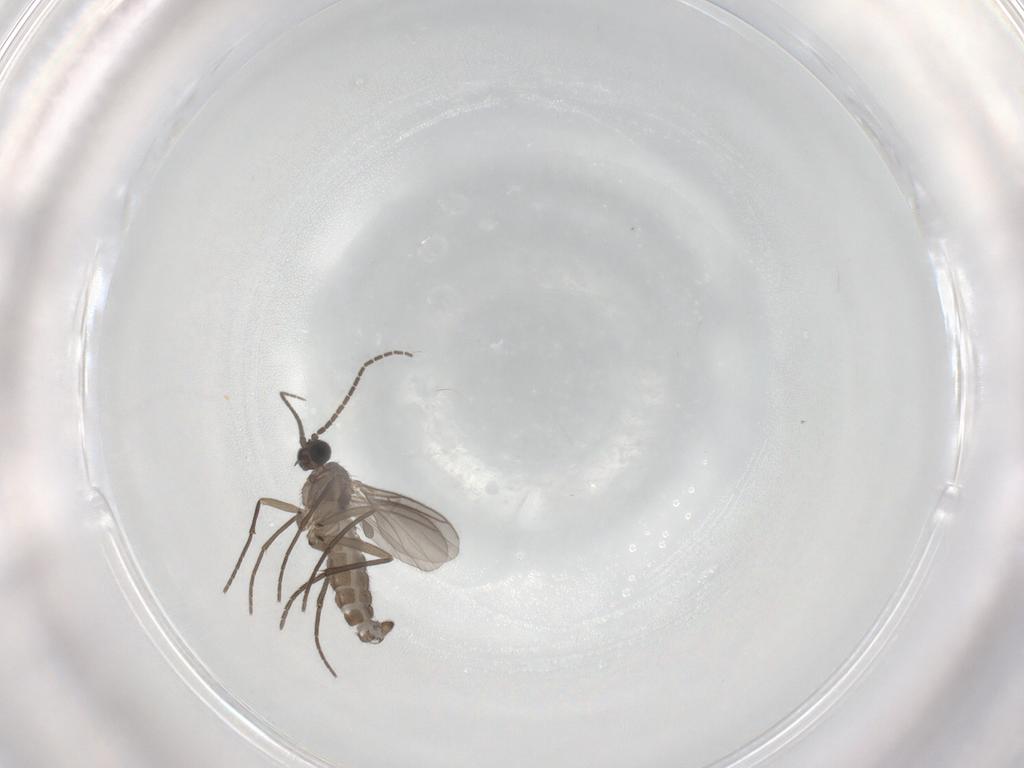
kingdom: Animalia
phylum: Arthropoda
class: Insecta
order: Diptera
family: Sciaridae
